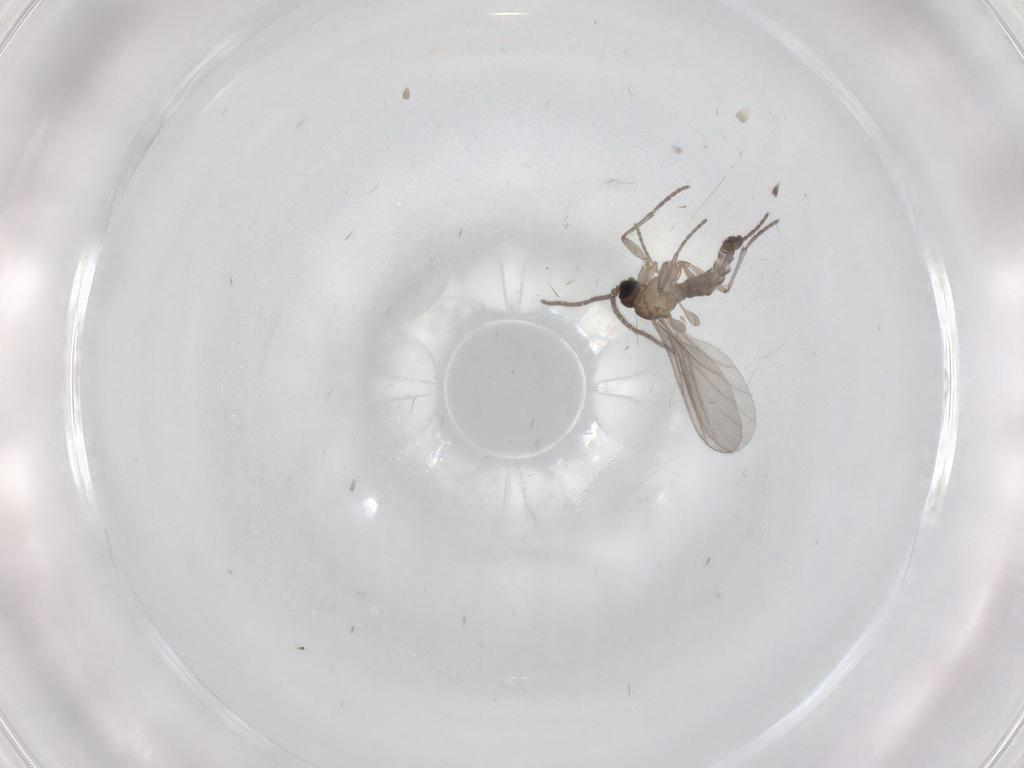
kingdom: Animalia
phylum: Arthropoda
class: Insecta
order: Diptera
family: Sciaridae
